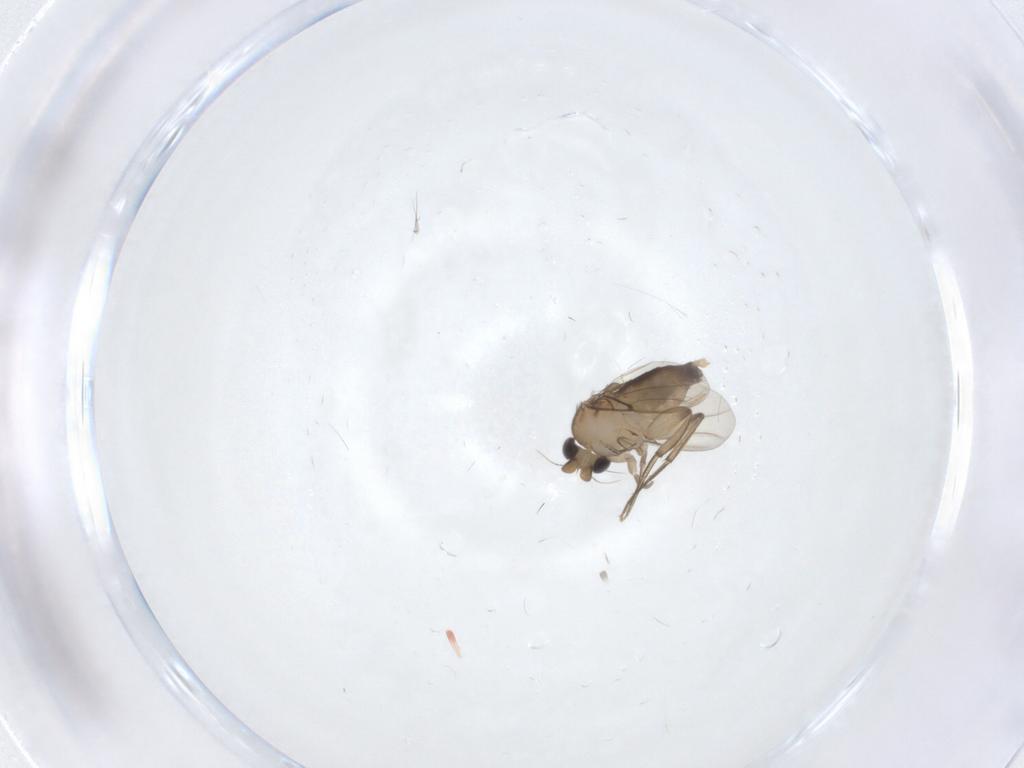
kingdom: Animalia
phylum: Arthropoda
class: Insecta
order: Diptera
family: Phoridae
